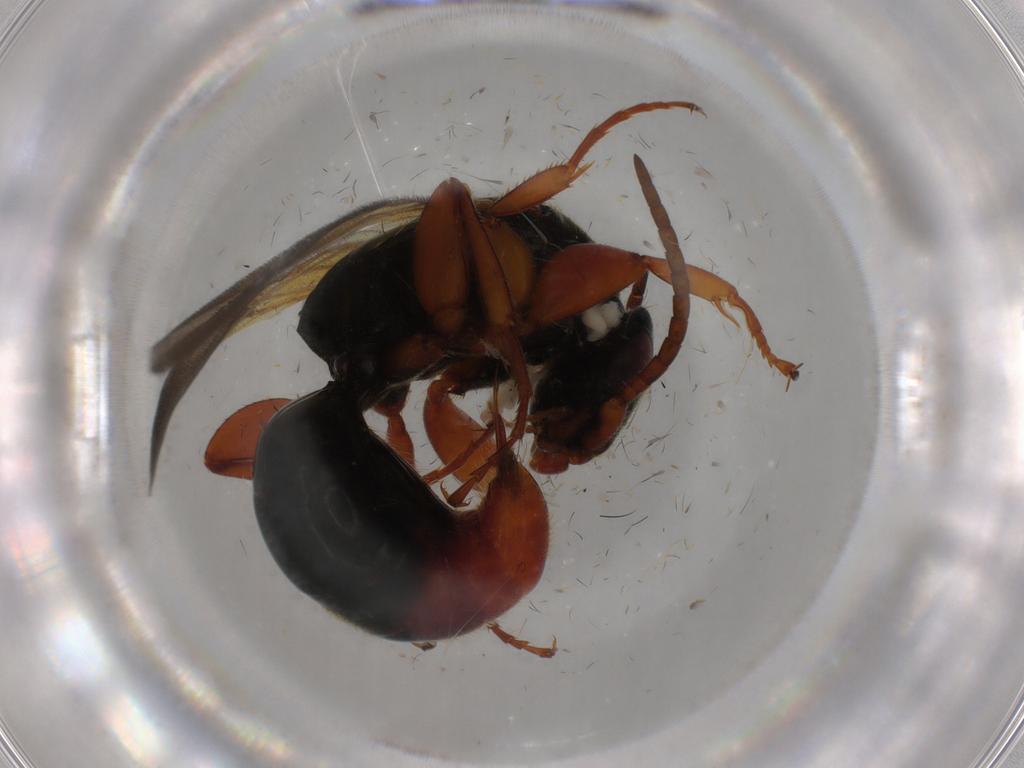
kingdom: Animalia
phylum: Arthropoda
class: Insecta
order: Hymenoptera
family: Bethylidae
